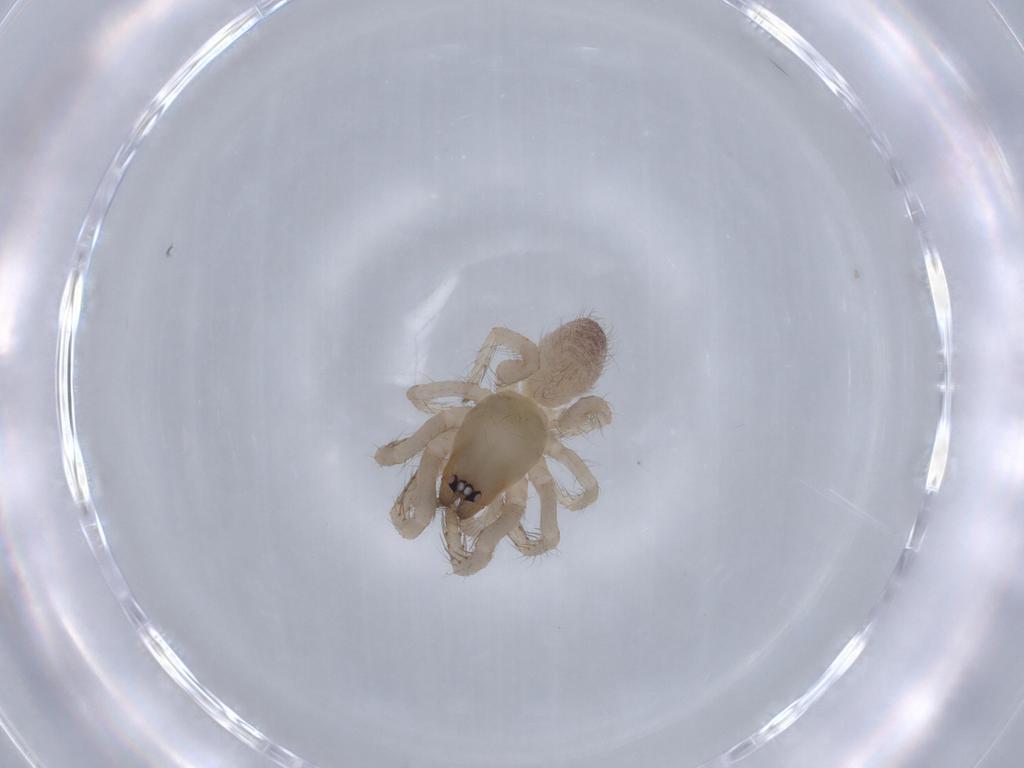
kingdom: Animalia
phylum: Arthropoda
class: Arachnida
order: Araneae
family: Segestriidae
